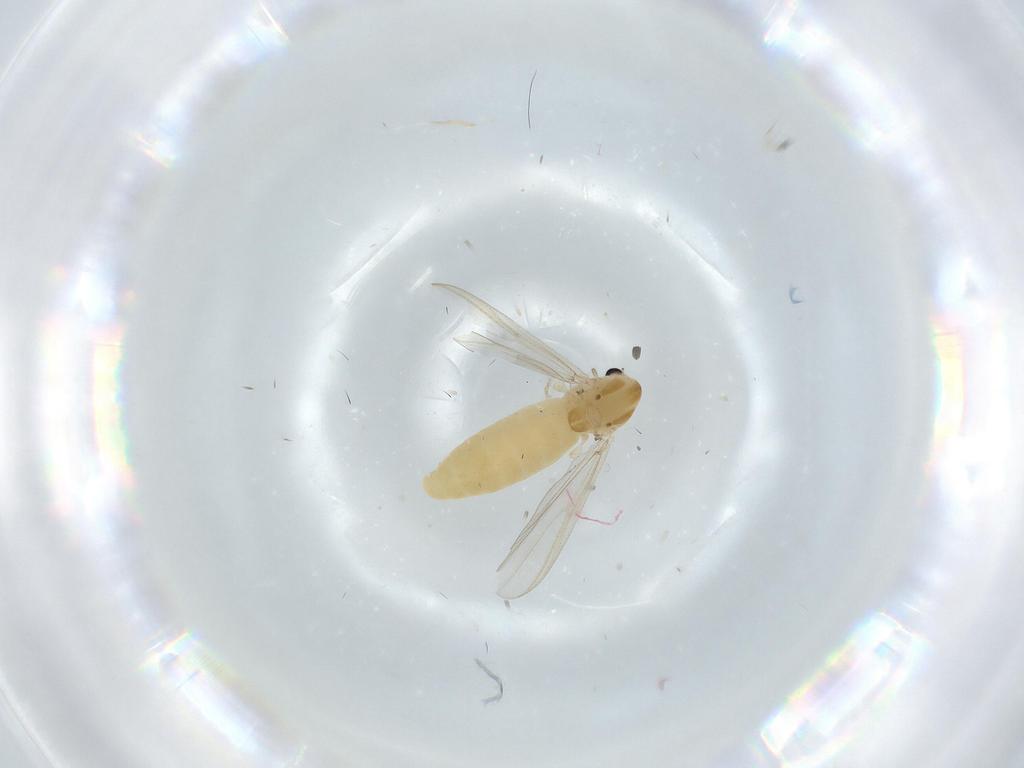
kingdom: Animalia
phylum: Arthropoda
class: Insecta
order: Diptera
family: Chironomidae
